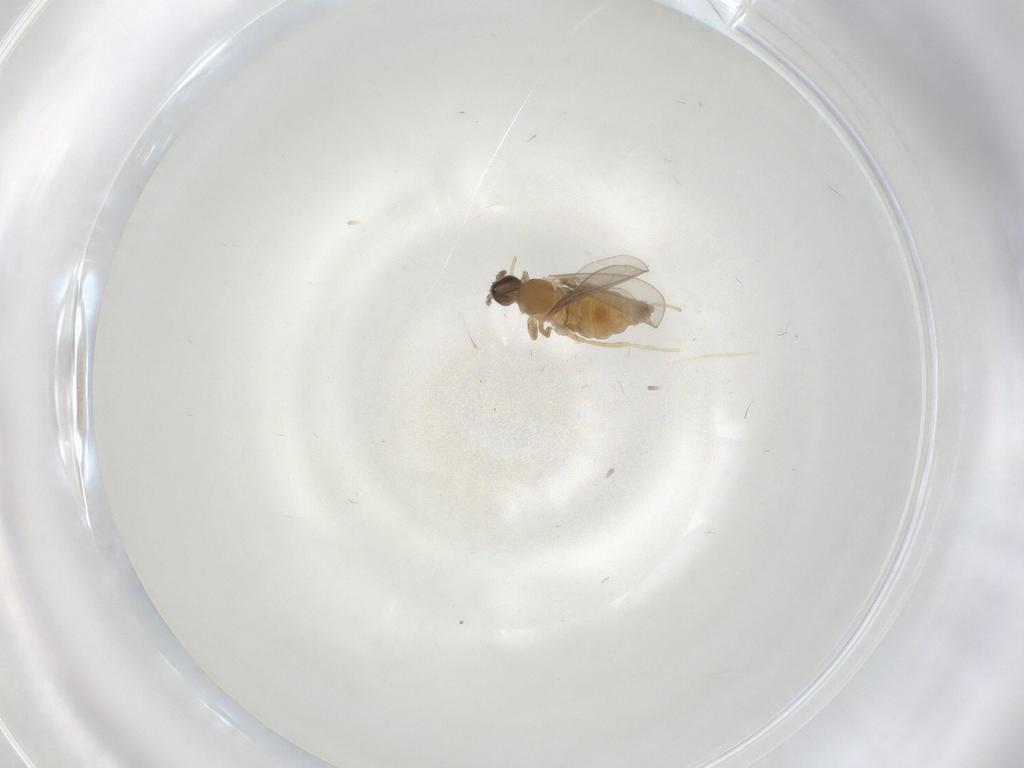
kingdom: Animalia
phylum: Arthropoda
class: Insecta
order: Diptera
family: Cecidomyiidae
